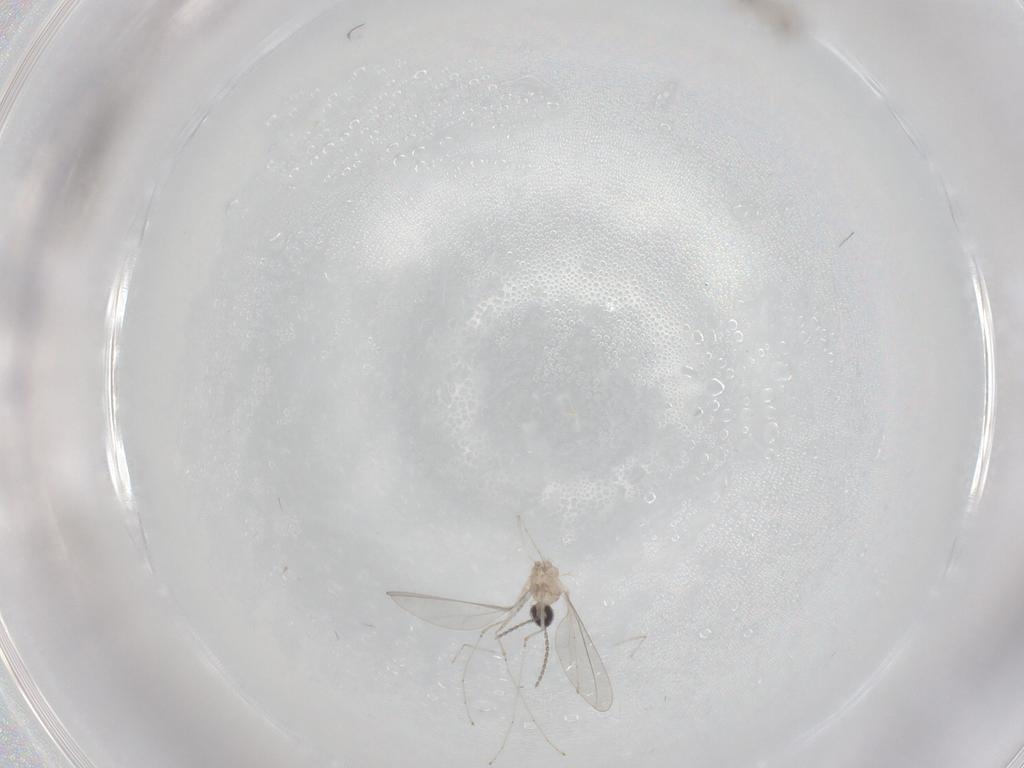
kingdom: Animalia
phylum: Arthropoda
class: Insecta
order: Diptera
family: Cecidomyiidae
